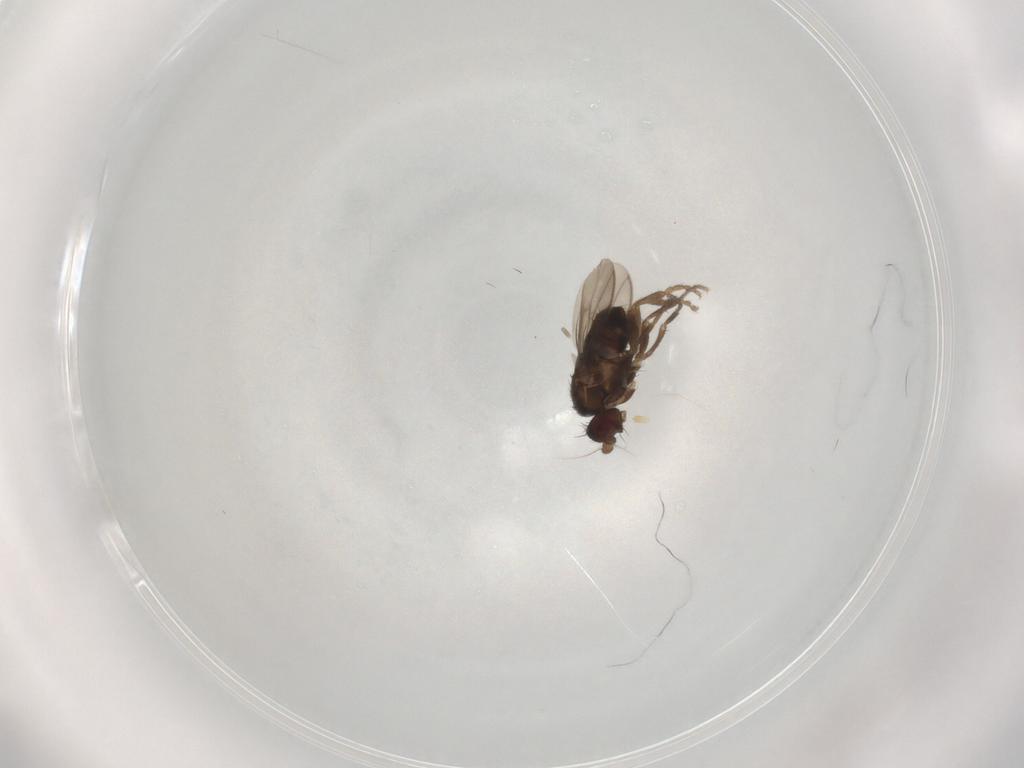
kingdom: Animalia
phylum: Arthropoda
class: Insecta
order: Diptera
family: Sphaeroceridae
